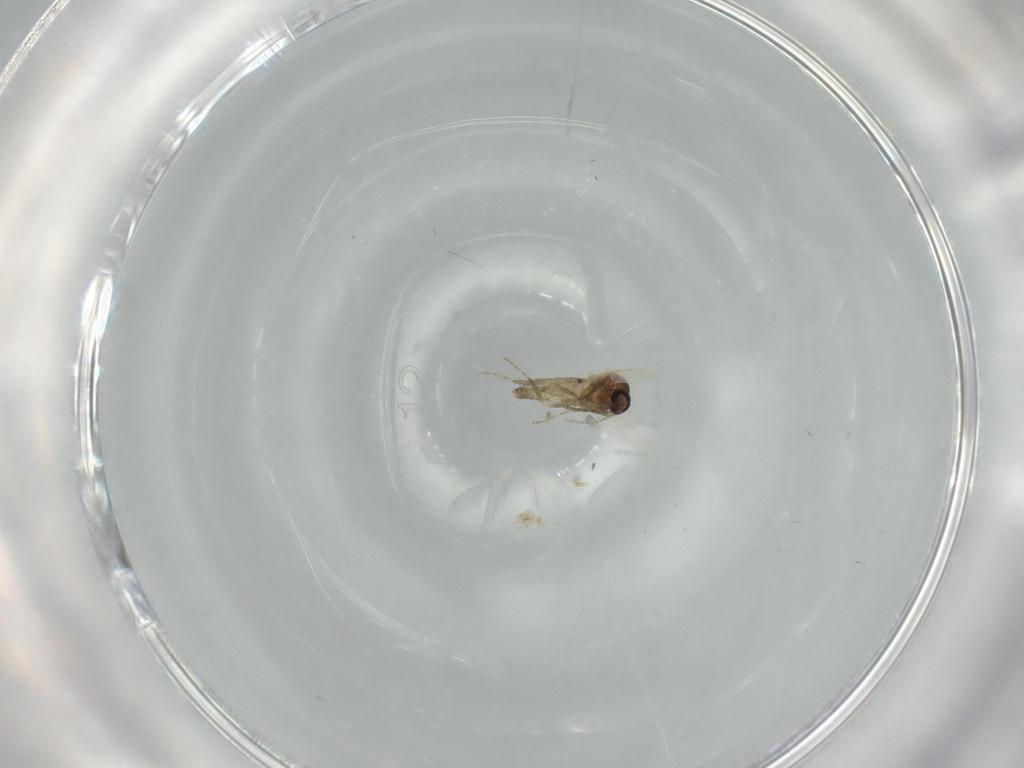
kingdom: Animalia
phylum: Arthropoda
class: Insecta
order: Diptera
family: Ceratopogonidae
